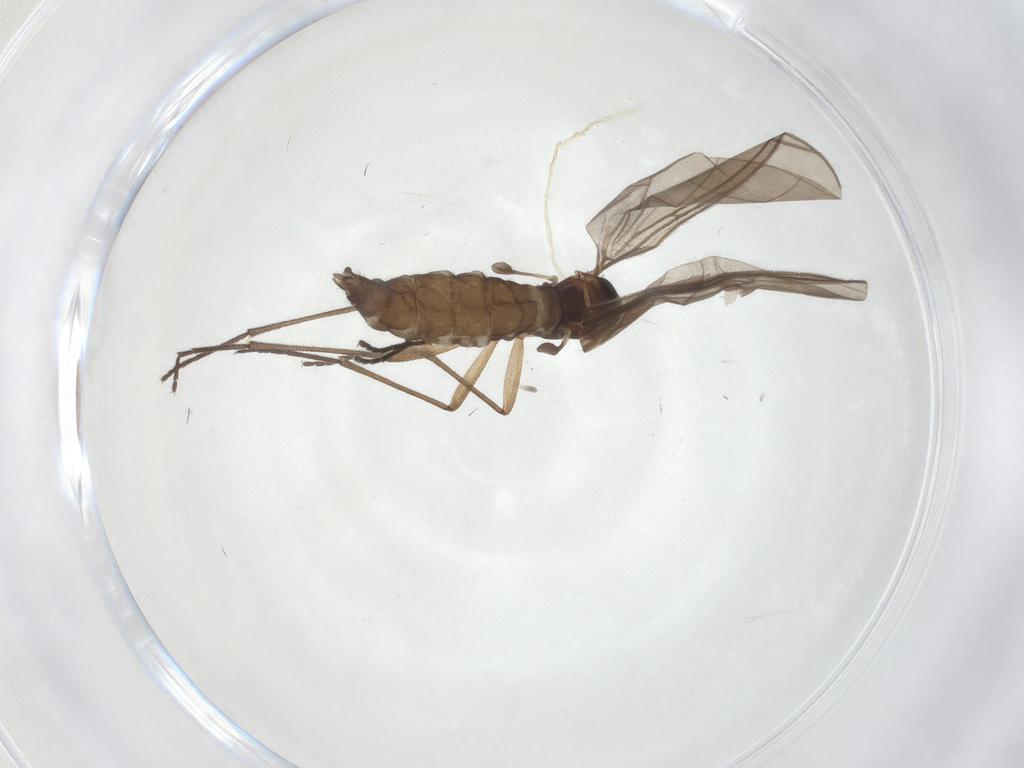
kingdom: Animalia
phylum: Arthropoda
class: Insecta
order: Diptera
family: Sciaridae
